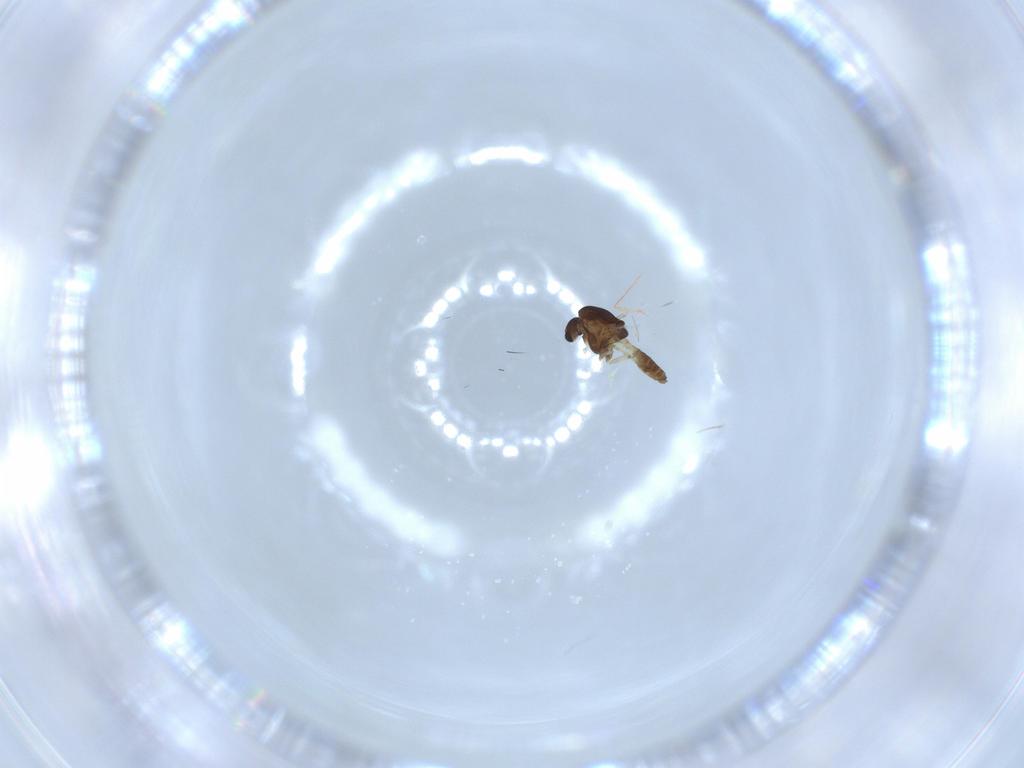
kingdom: Animalia
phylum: Arthropoda
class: Insecta
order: Diptera
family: Chironomidae
